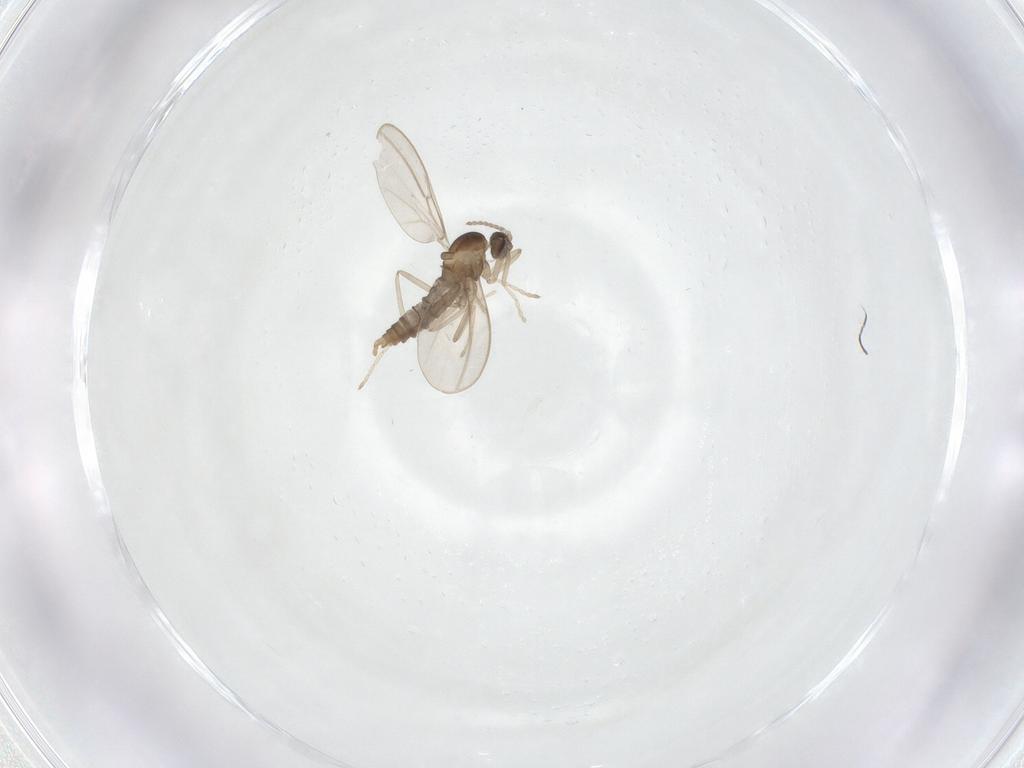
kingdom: Animalia
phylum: Arthropoda
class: Insecta
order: Diptera
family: Cecidomyiidae
